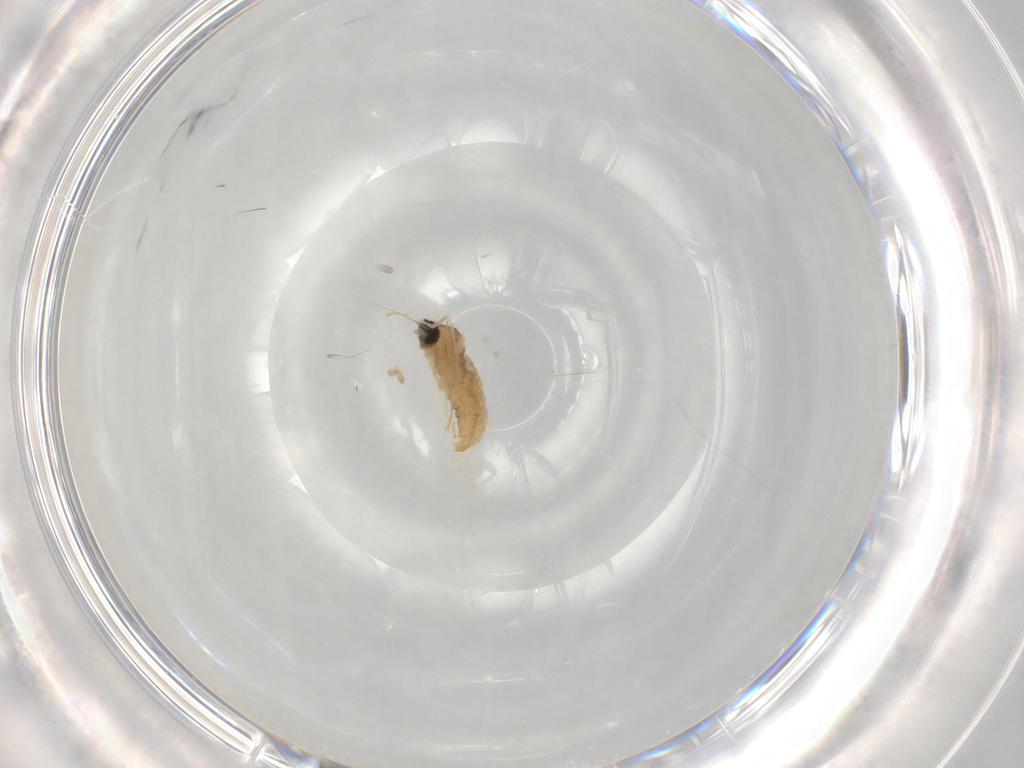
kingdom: Animalia
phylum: Arthropoda
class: Insecta
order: Diptera
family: Cecidomyiidae
